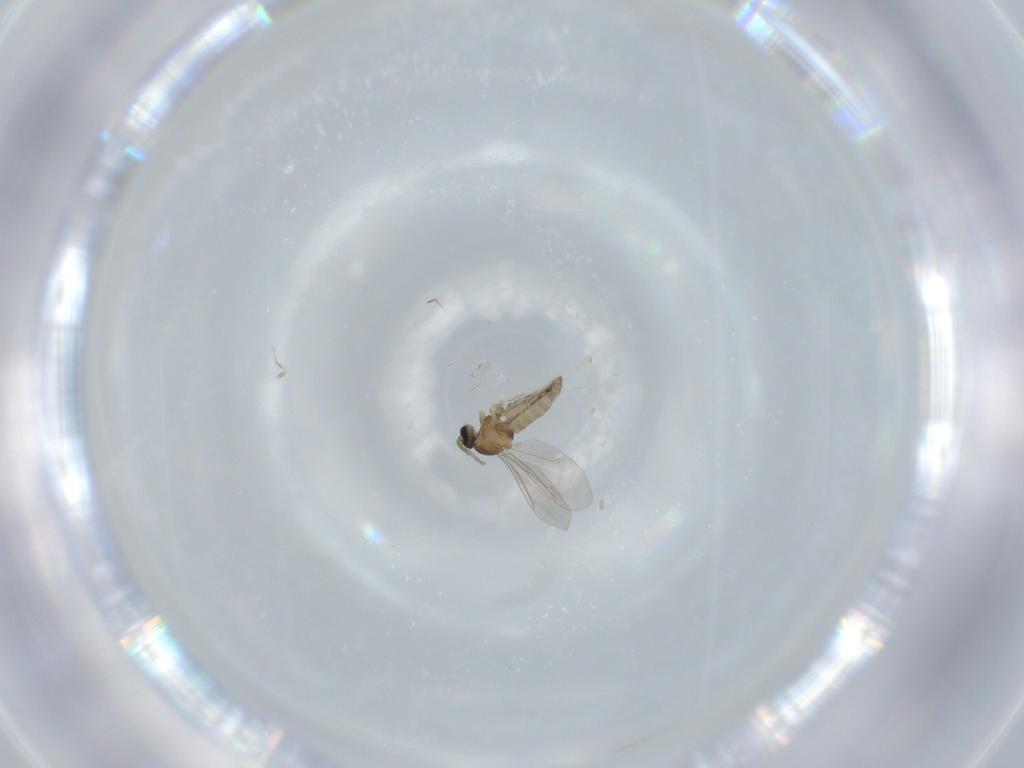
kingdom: Animalia
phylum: Arthropoda
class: Insecta
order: Diptera
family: Cecidomyiidae
